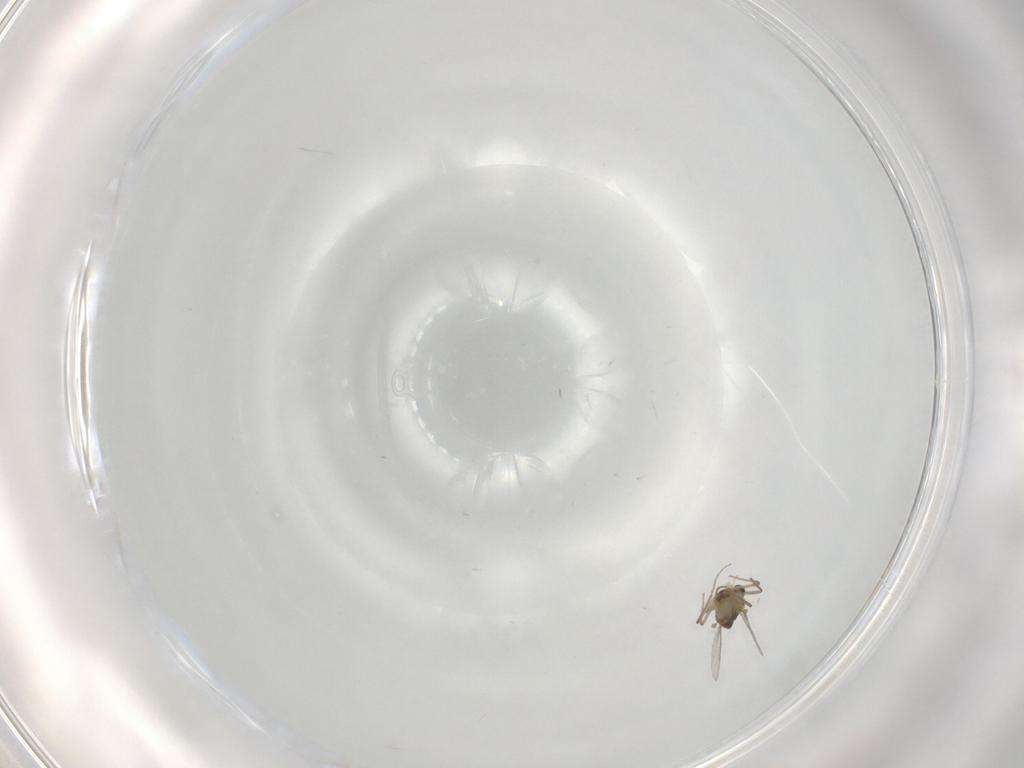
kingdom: Animalia
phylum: Arthropoda
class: Insecta
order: Diptera
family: Chironomidae
